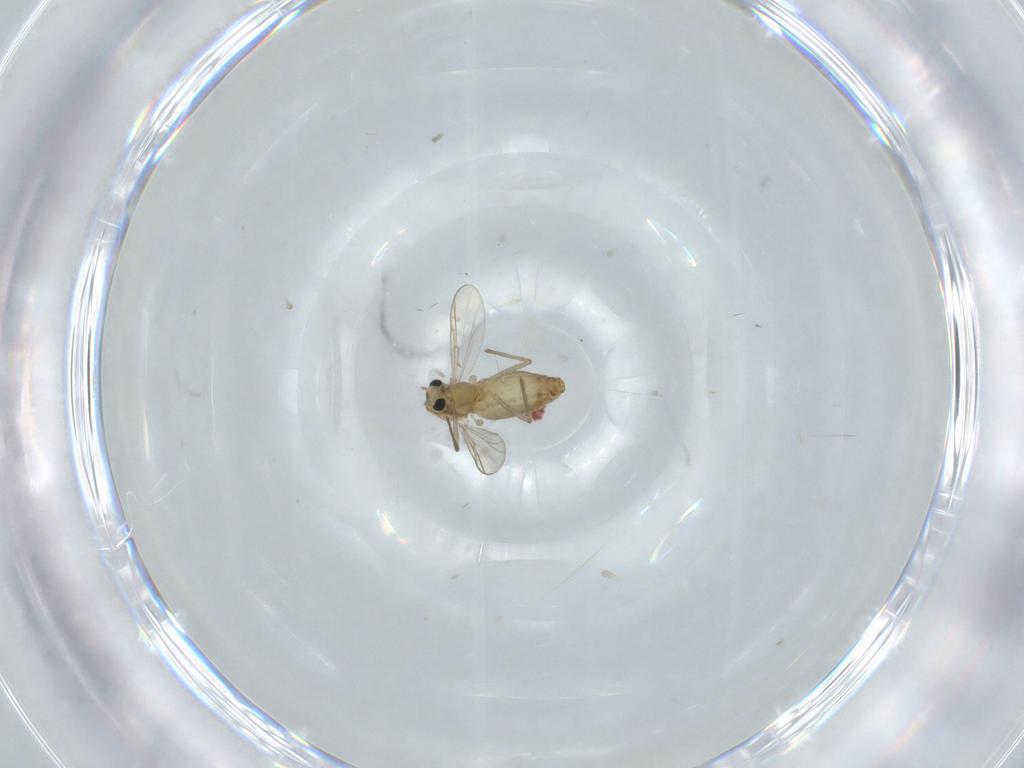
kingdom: Animalia
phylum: Arthropoda
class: Insecta
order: Diptera
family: Chironomidae
